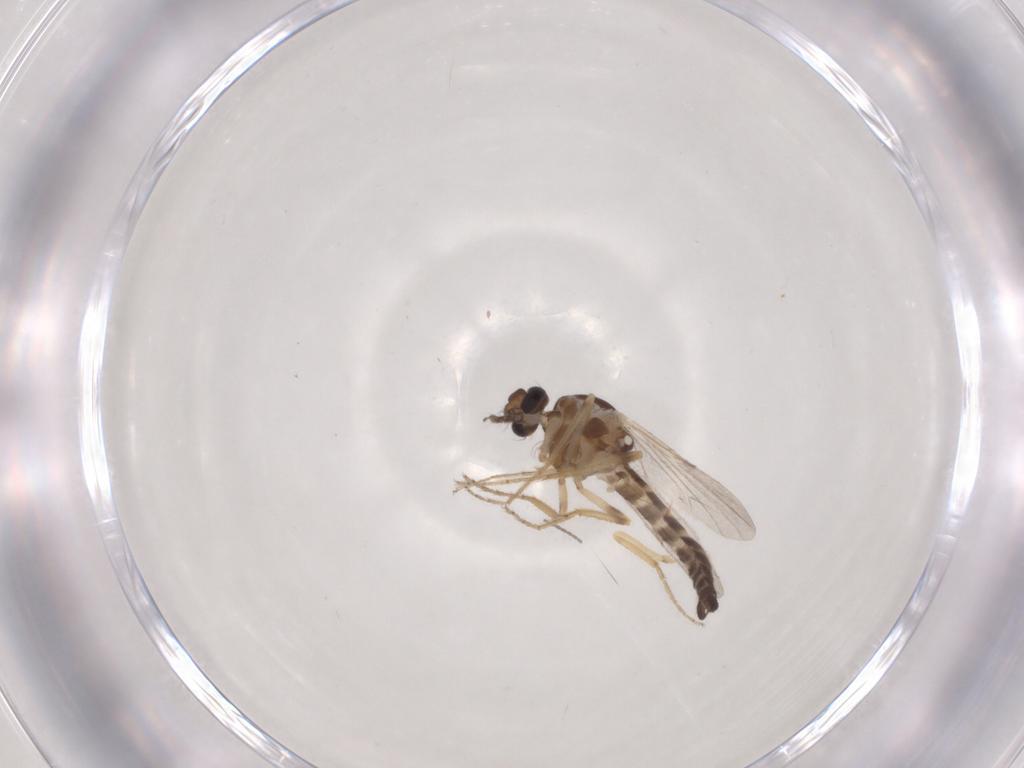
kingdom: Animalia
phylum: Arthropoda
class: Insecta
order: Diptera
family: Ceratopogonidae
